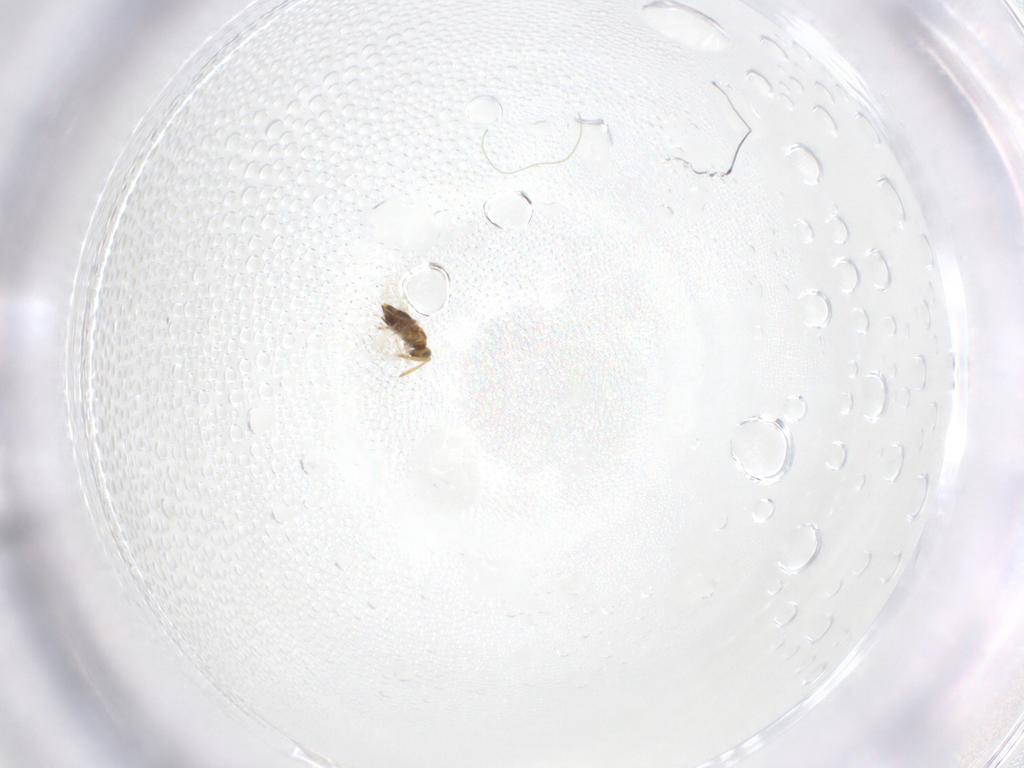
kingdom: Animalia
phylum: Arthropoda
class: Insecta
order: Hymenoptera
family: Aphelinidae
